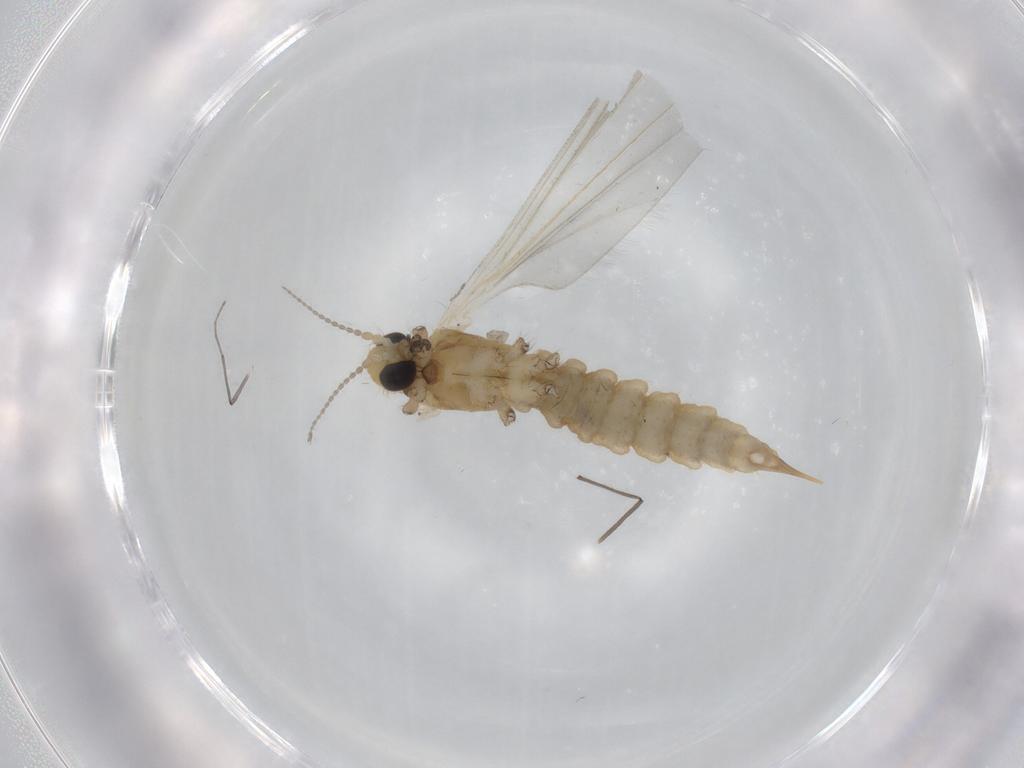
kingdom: Animalia
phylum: Arthropoda
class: Insecta
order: Diptera
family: Limoniidae
